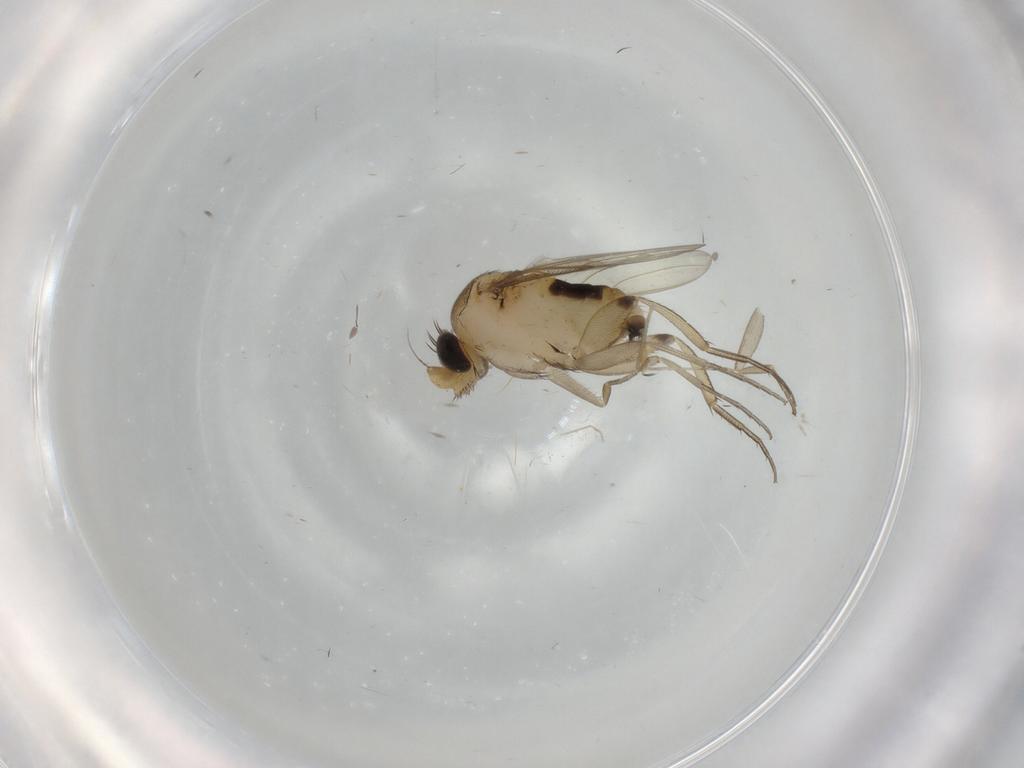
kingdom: Animalia
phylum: Arthropoda
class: Insecta
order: Diptera
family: Phoridae
